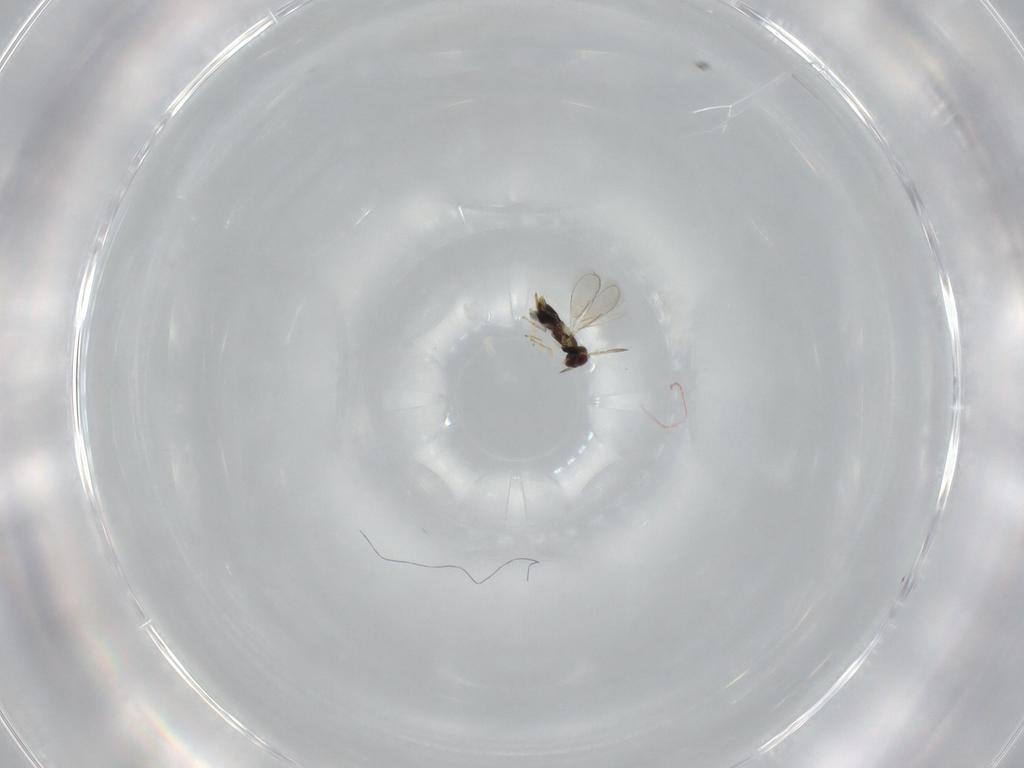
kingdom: Animalia
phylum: Arthropoda
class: Insecta
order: Hymenoptera
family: Aphelinidae
